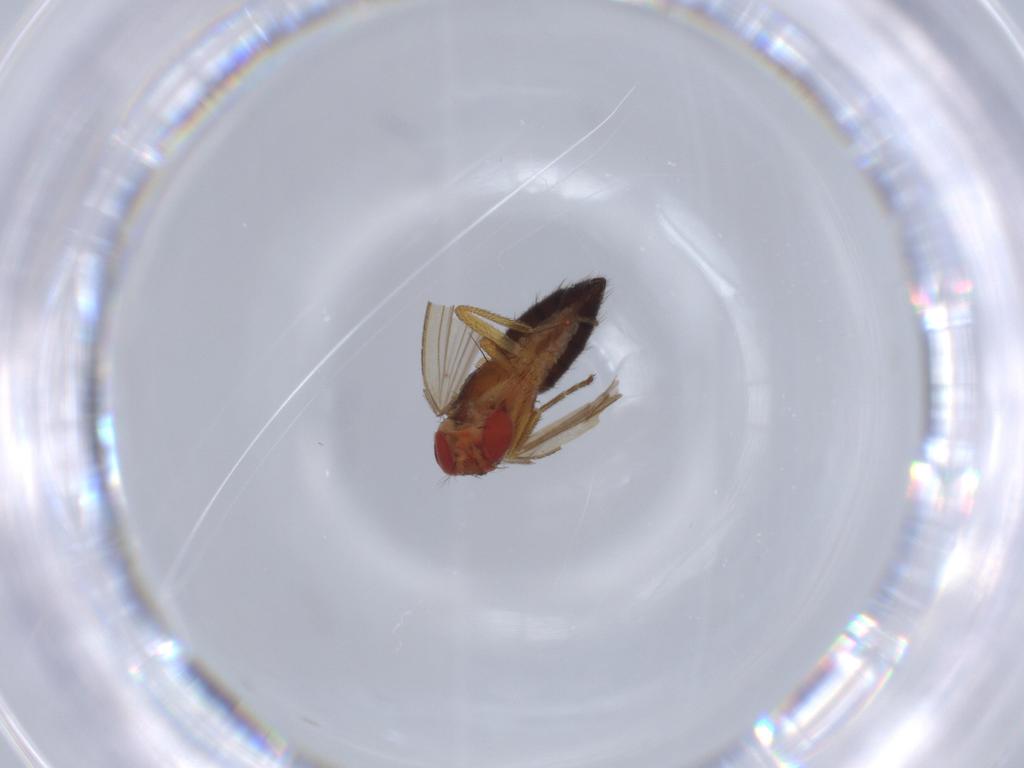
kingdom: Animalia
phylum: Arthropoda
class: Insecta
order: Diptera
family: Drosophilidae
